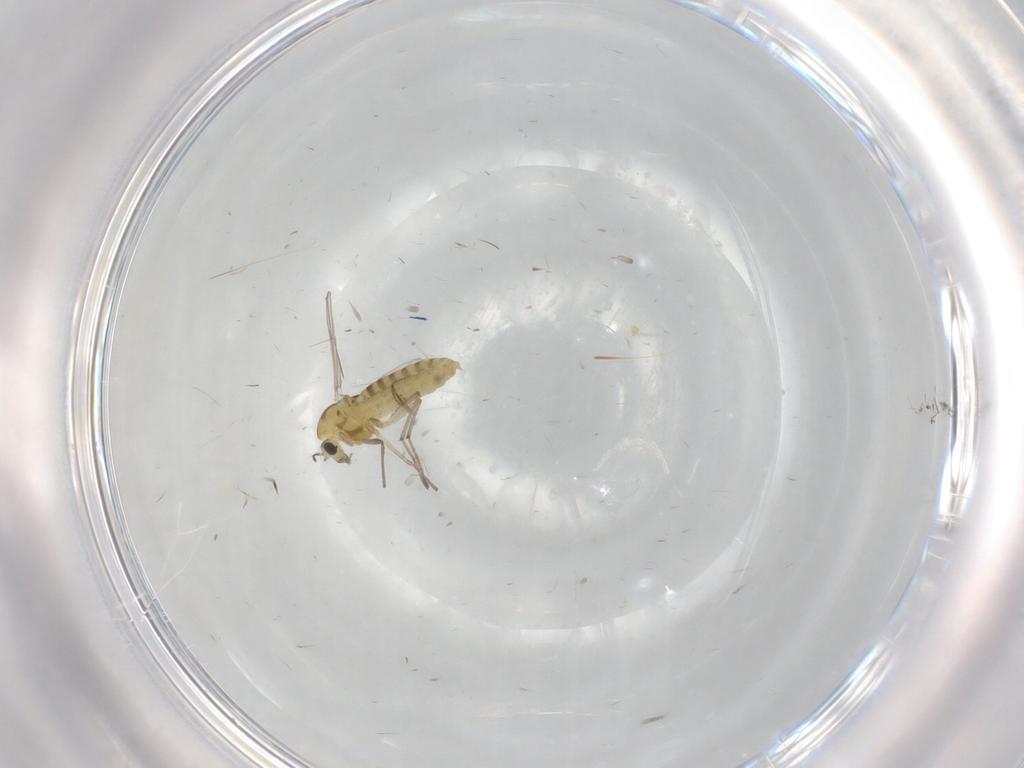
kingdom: Animalia
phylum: Arthropoda
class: Insecta
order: Diptera
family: Chironomidae
